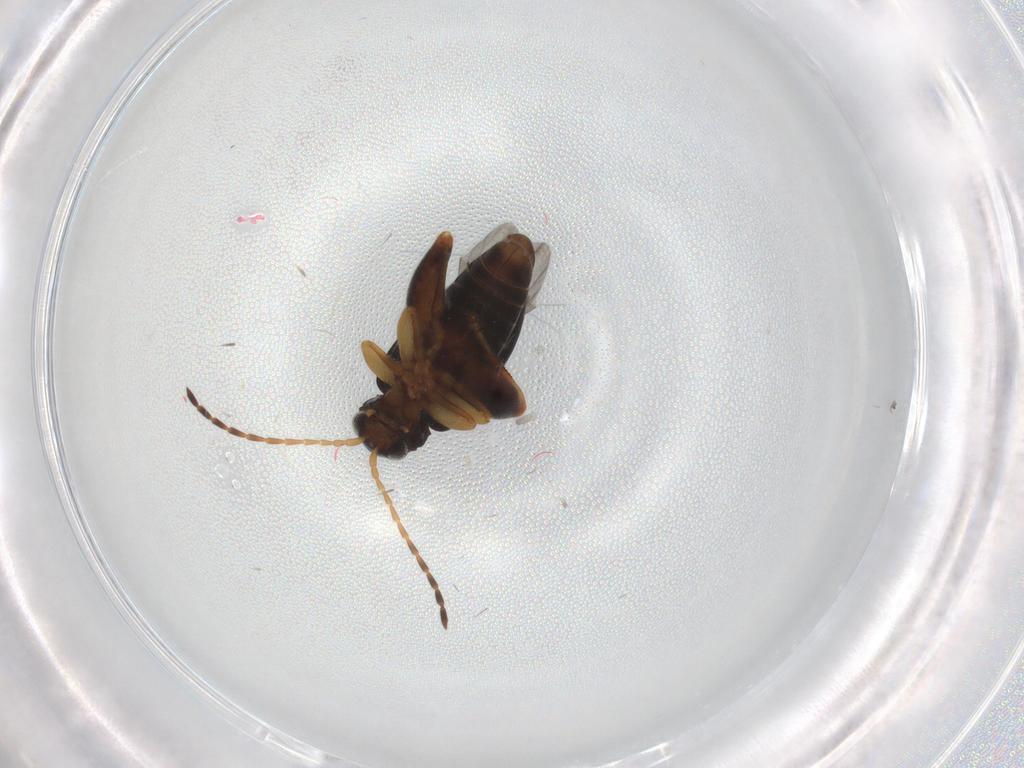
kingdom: Animalia
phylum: Arthropoda
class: Insecta
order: Coleoptera
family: Chrysomelidae
